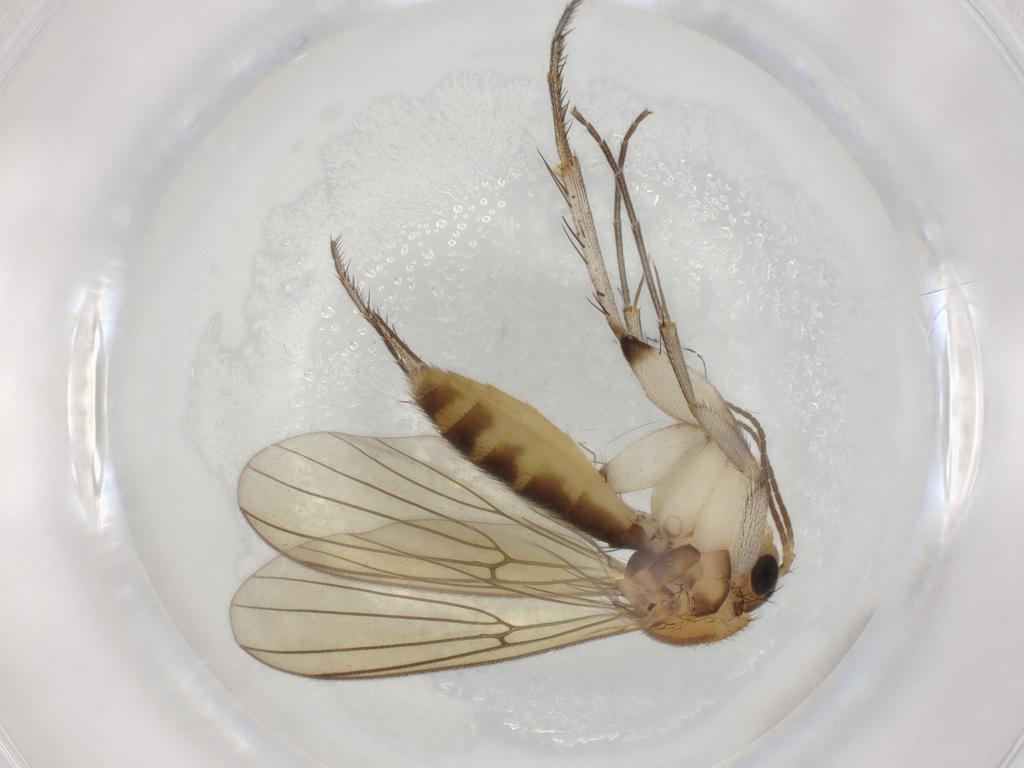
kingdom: Animalia
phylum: Arthropoda
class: Insecta
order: Diptera
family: Mycetophilidae
